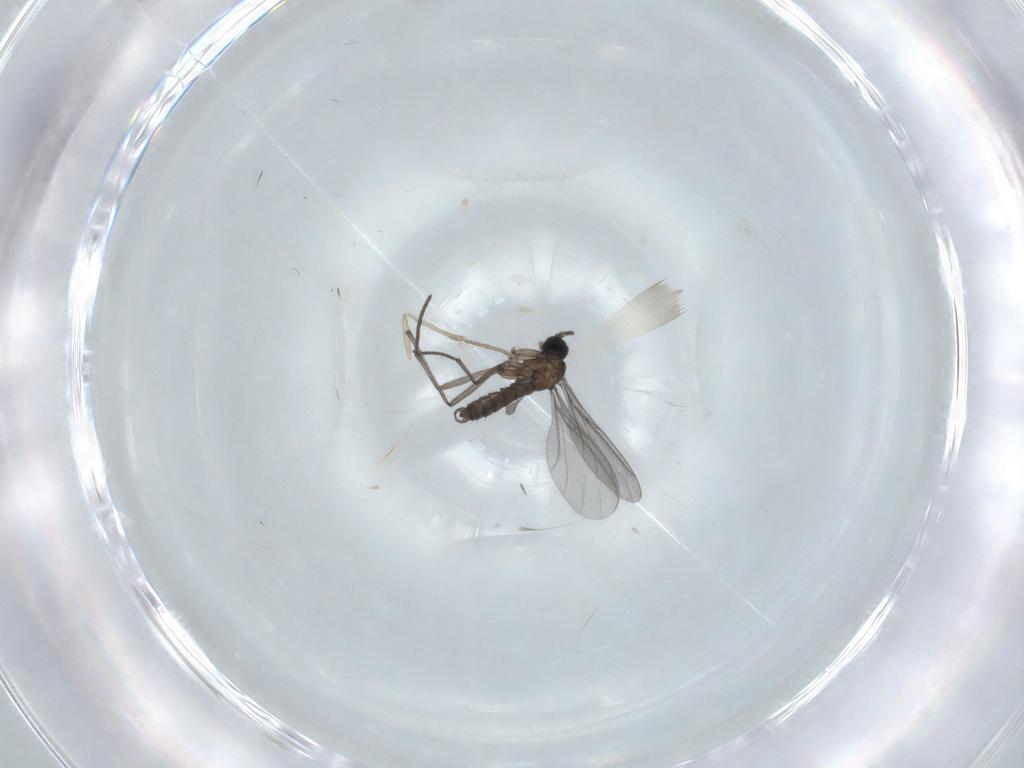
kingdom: Animalia
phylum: Arthropoda
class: Insecta
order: Diptera
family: Sciaridae
